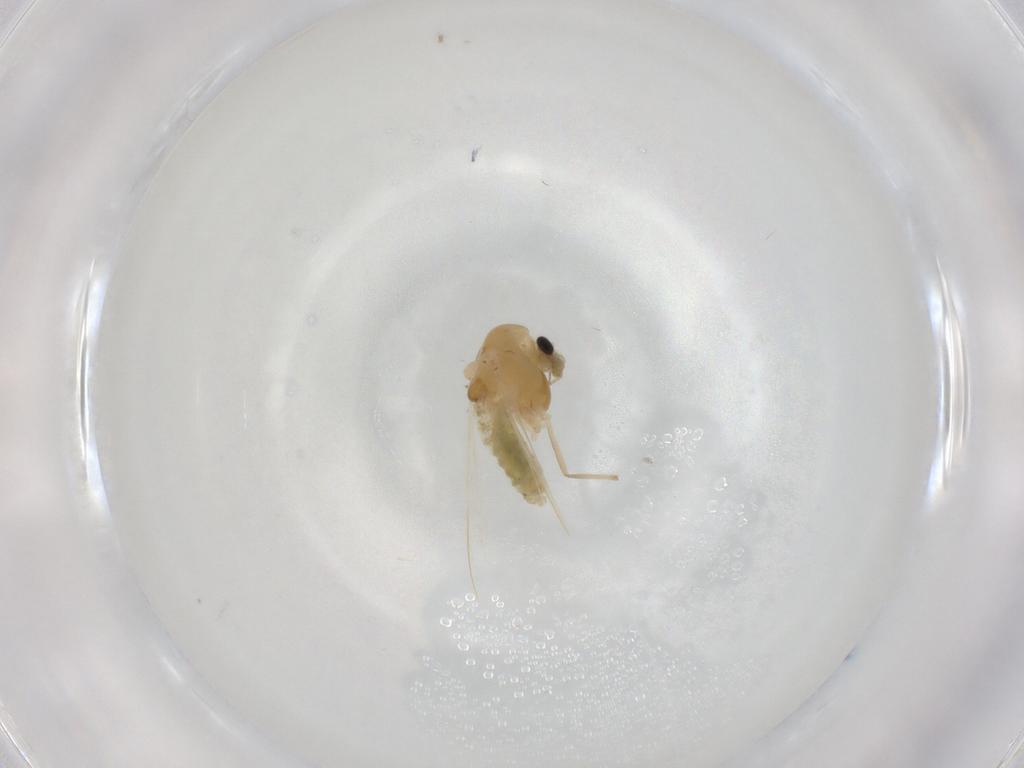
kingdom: Animalia
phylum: Arthropoda
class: Insecta
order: Diptera
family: Chironomidae
